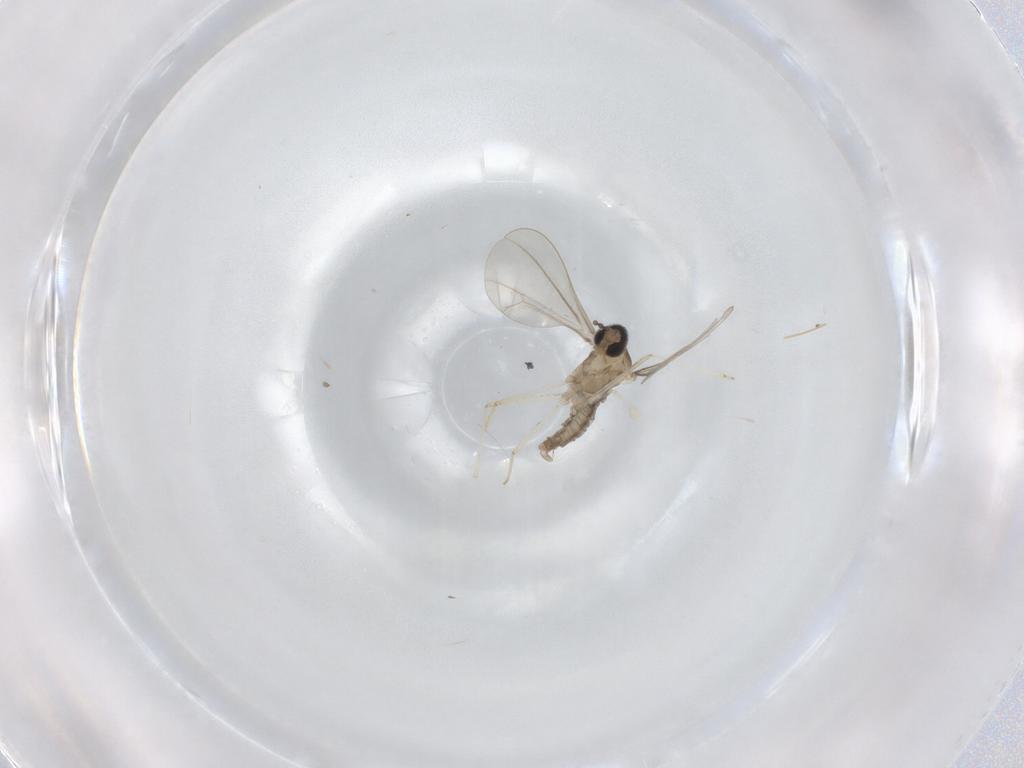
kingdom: Animalia
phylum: Arthropoda
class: Insecta
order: Diptera
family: Cecidomyiidae
